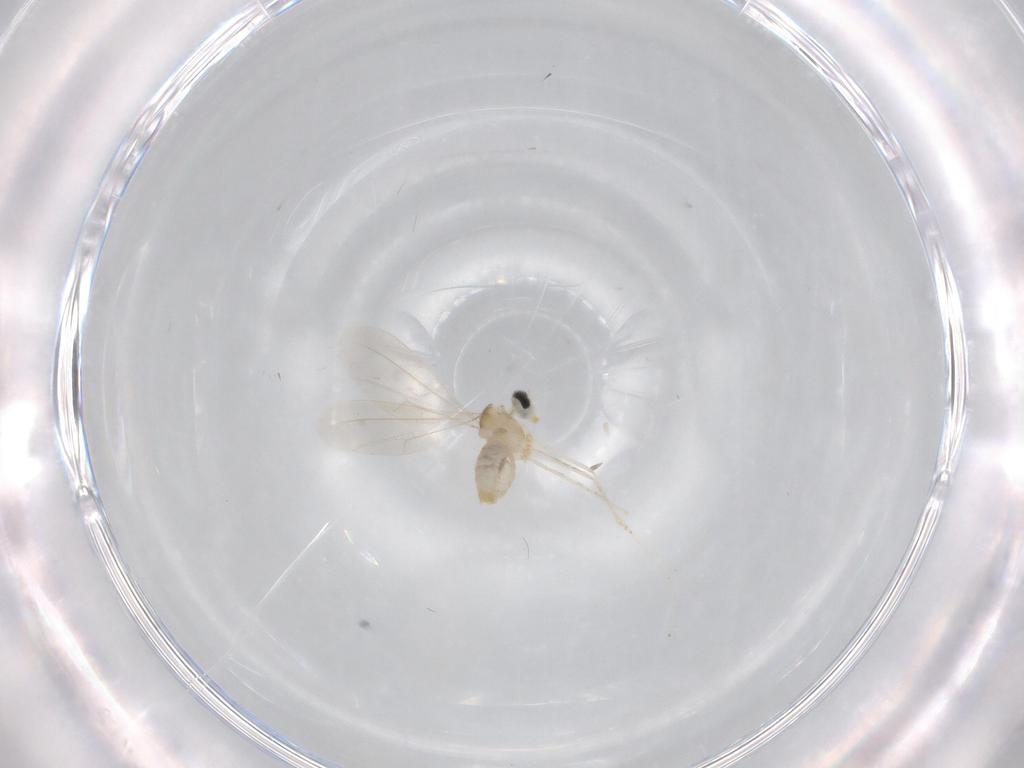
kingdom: Animalia
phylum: Arthropoda
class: Insecta
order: Diptera
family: Cecidomyiidae
